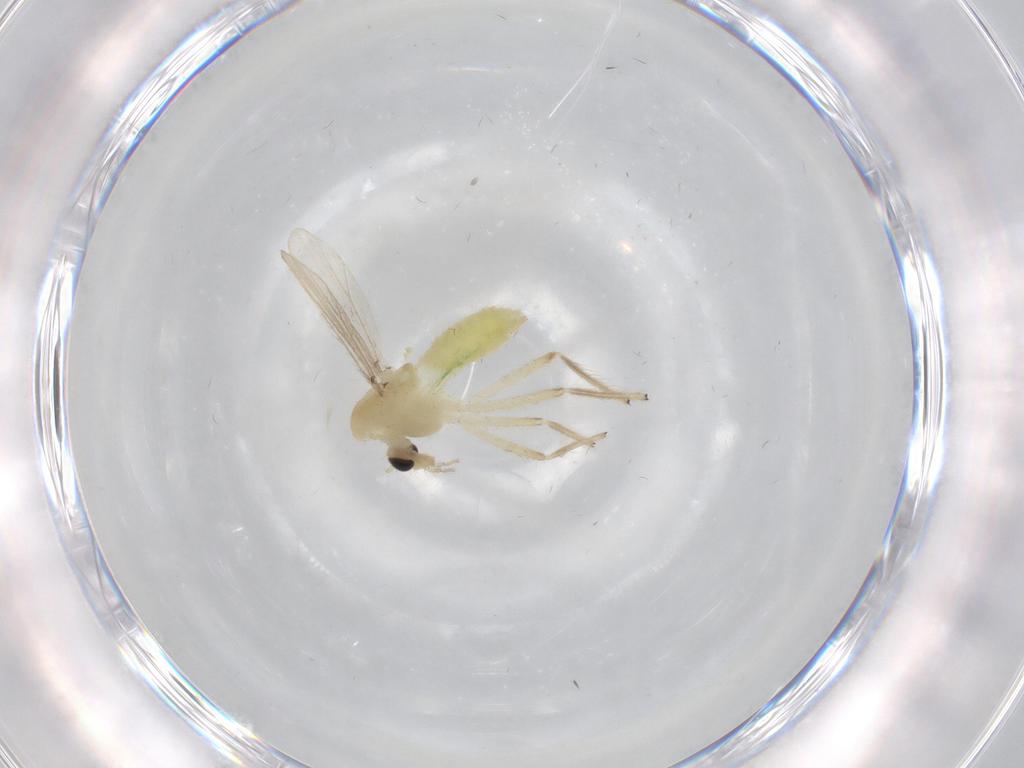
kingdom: Animalia
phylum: Arthropoda
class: Insecta
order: Diptera
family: Chironomidae
